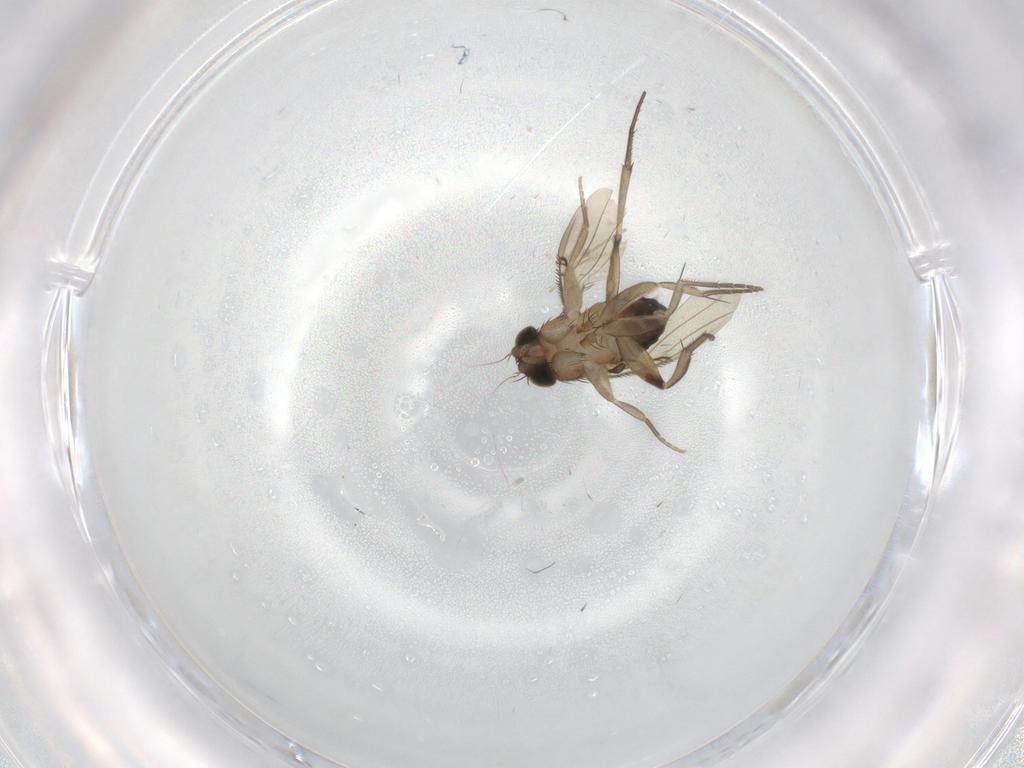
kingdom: Animalia
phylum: Arthropoda
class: Insecta
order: Diptera
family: Phoridae
